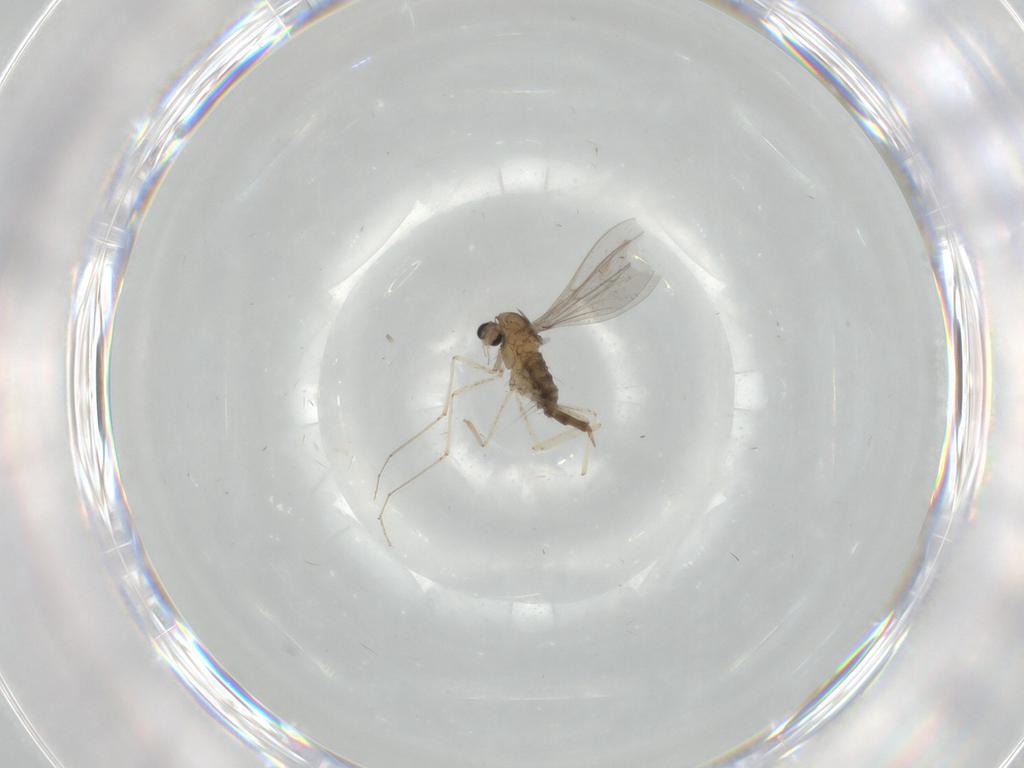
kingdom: Animalia
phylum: Arthropoda
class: Insecta
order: Diptera
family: Cecidomyiidae
